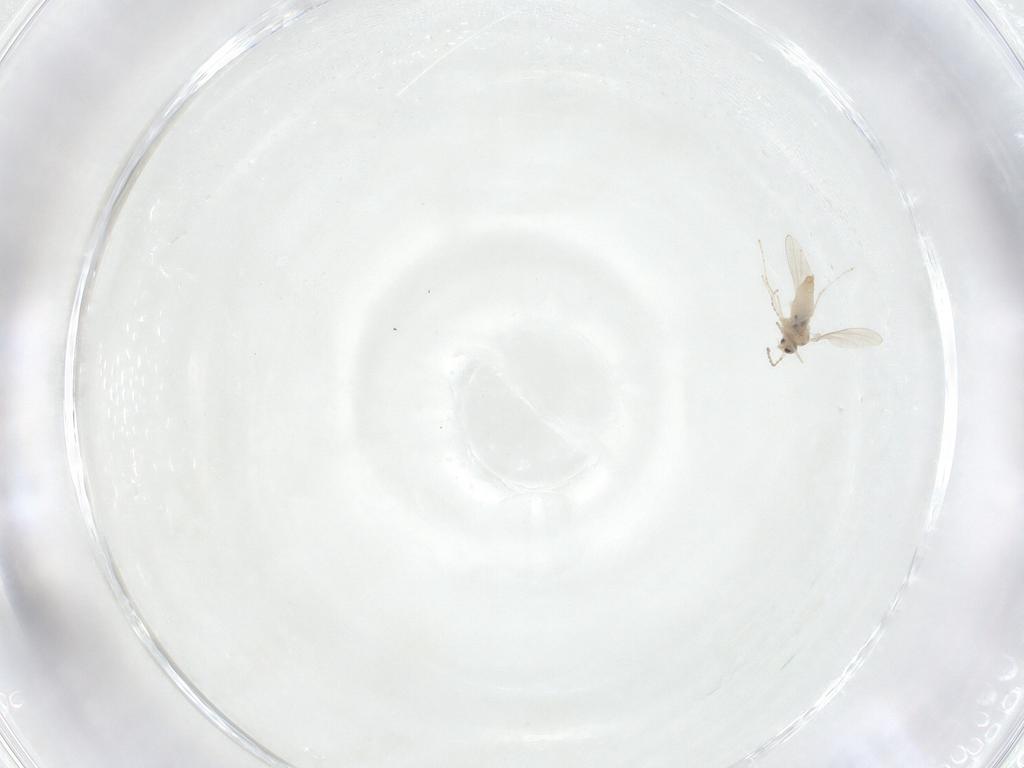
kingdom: Animalia
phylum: Arthropoda
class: Insecta
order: Diptera
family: Cecidomyiidae
